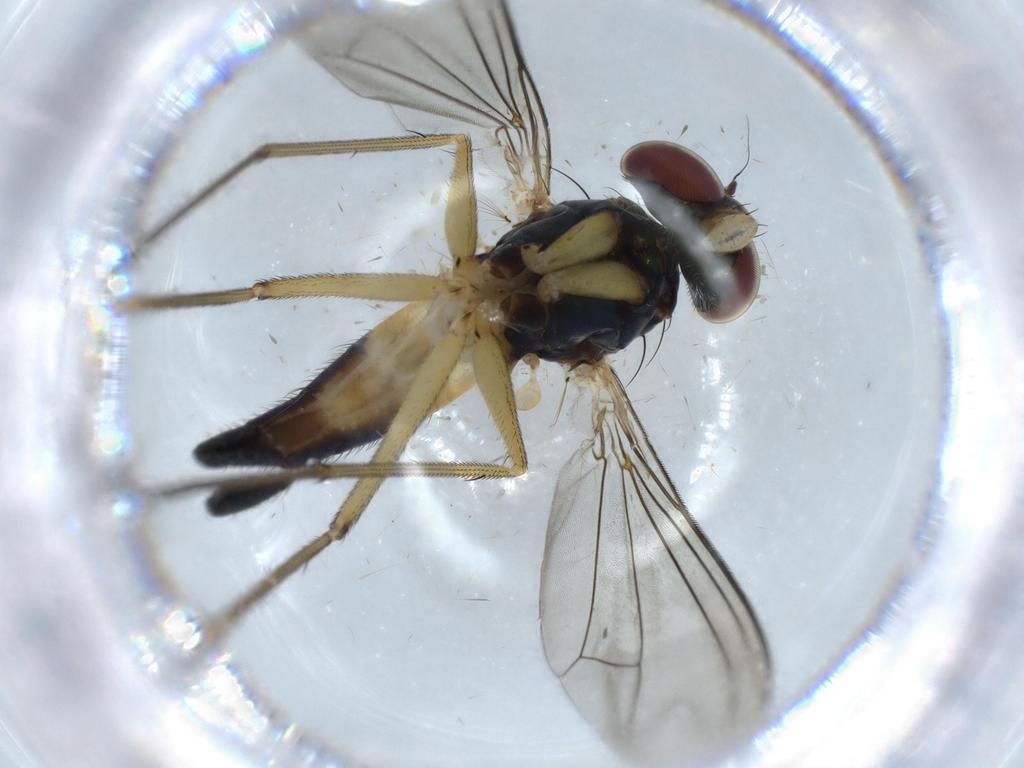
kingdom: Animalia
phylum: Arthropoda
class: Insecta
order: Diptera
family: Dolichopodidae
